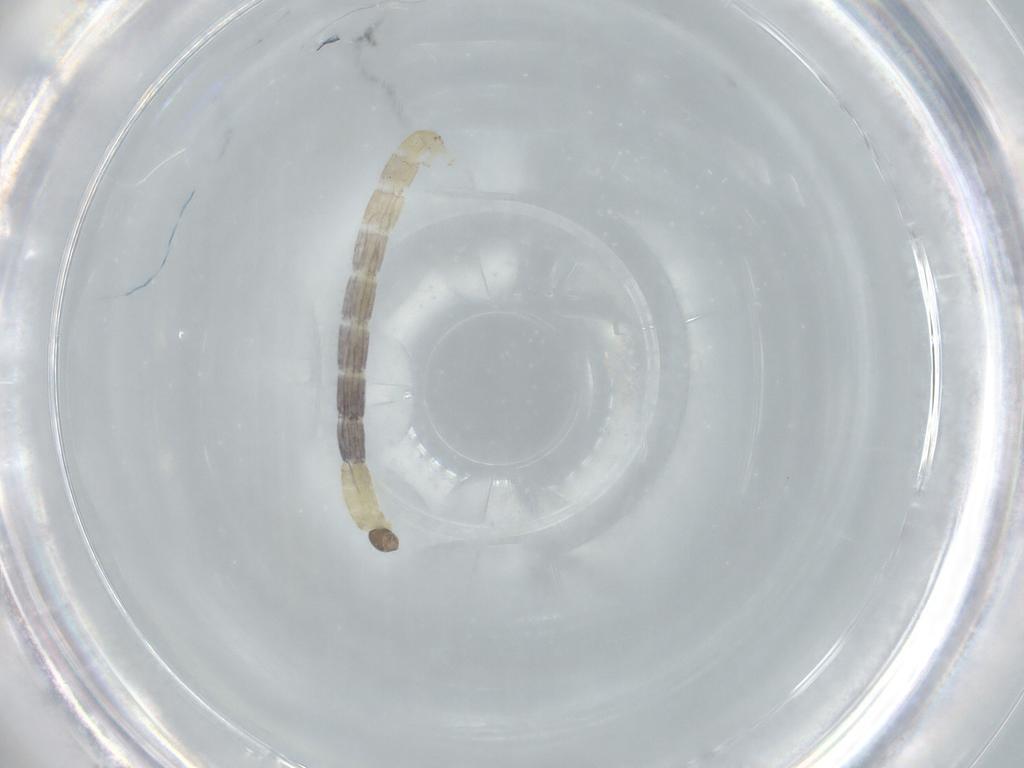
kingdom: Animalia
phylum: Arthropoda
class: Insecta
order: Diptera
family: Chironomidae
